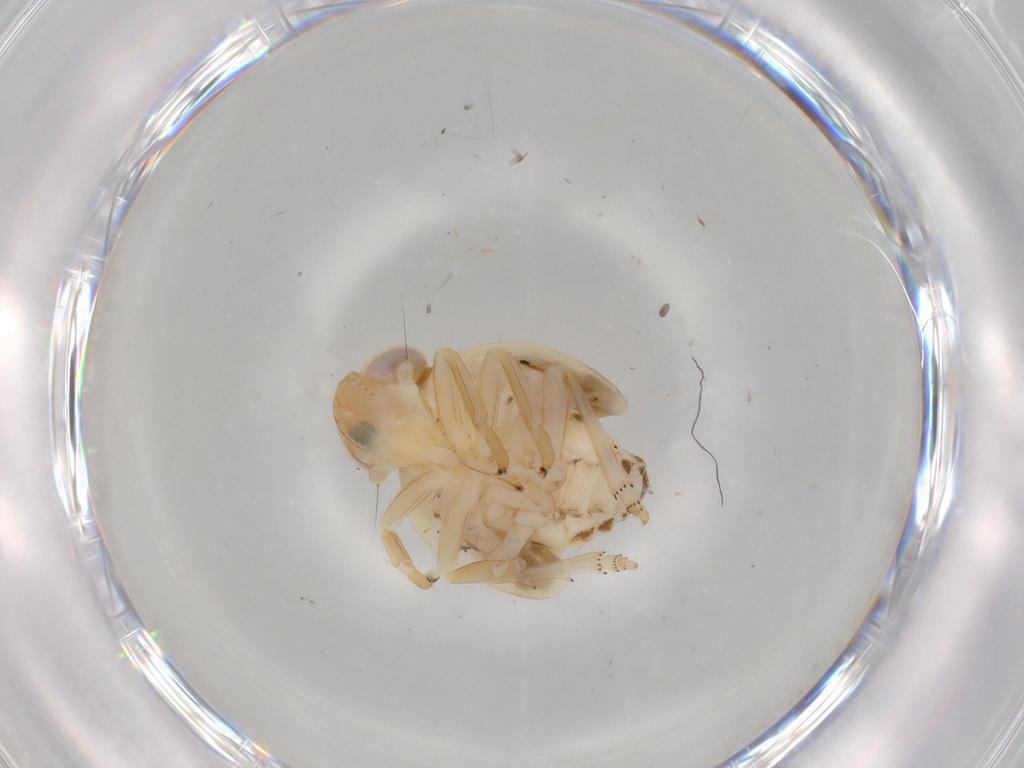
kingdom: Animalia
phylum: Arthropoda
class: Insecta
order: Hemiptera
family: Nogodinidae
